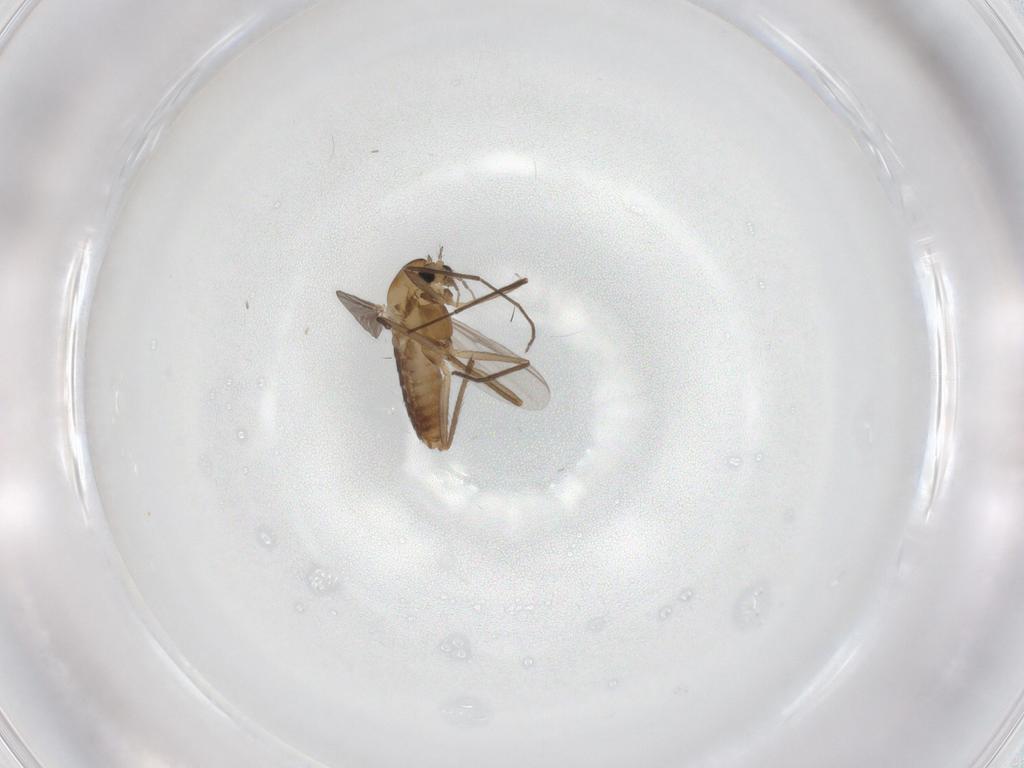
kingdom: Animalia
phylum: Arthropoda
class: Insecta
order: Diptera
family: Chironomidae
